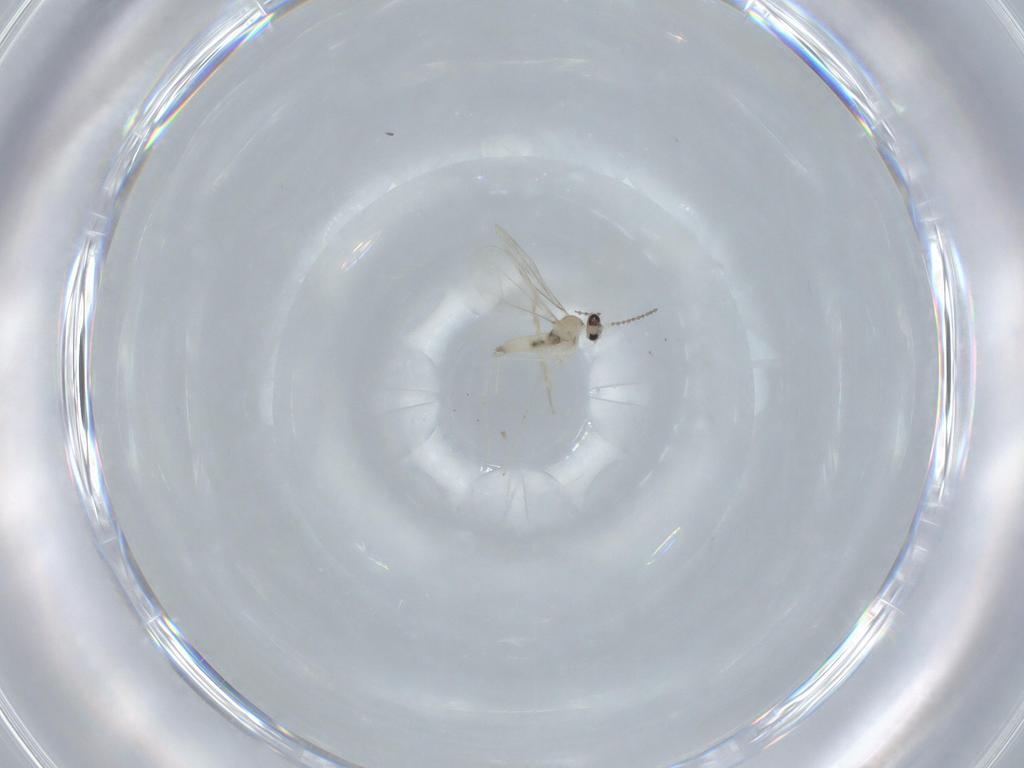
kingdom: Animalia
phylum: Arthropoda
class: Insecta
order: Diptera
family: Cecidomyiidae
